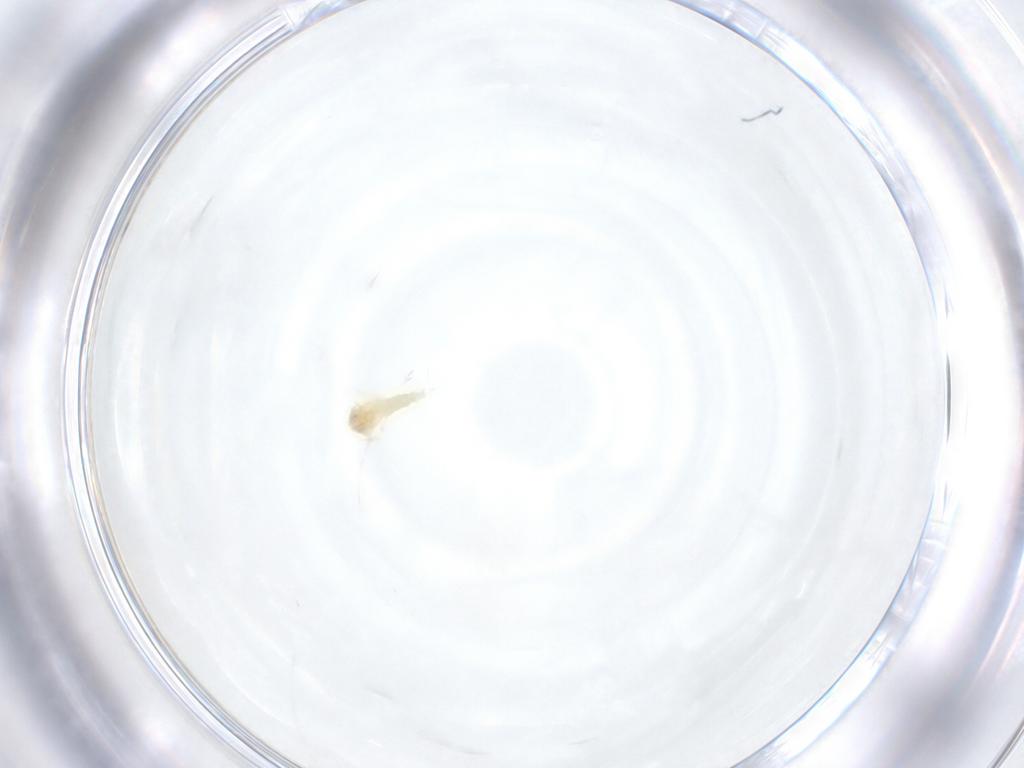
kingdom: Animalia
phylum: Arthropoda
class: Insecta
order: Hemiptera
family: Aleyrodidae
